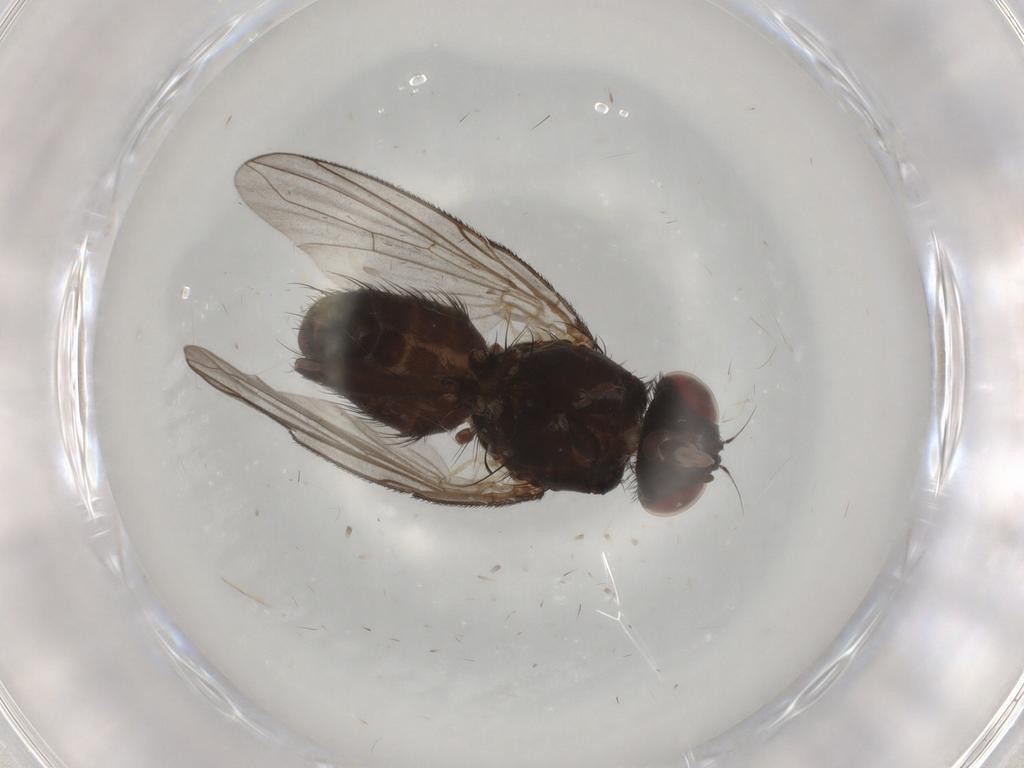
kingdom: Animalia
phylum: Arthropoda
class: Insecta
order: Diptera
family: Calliphoridae
